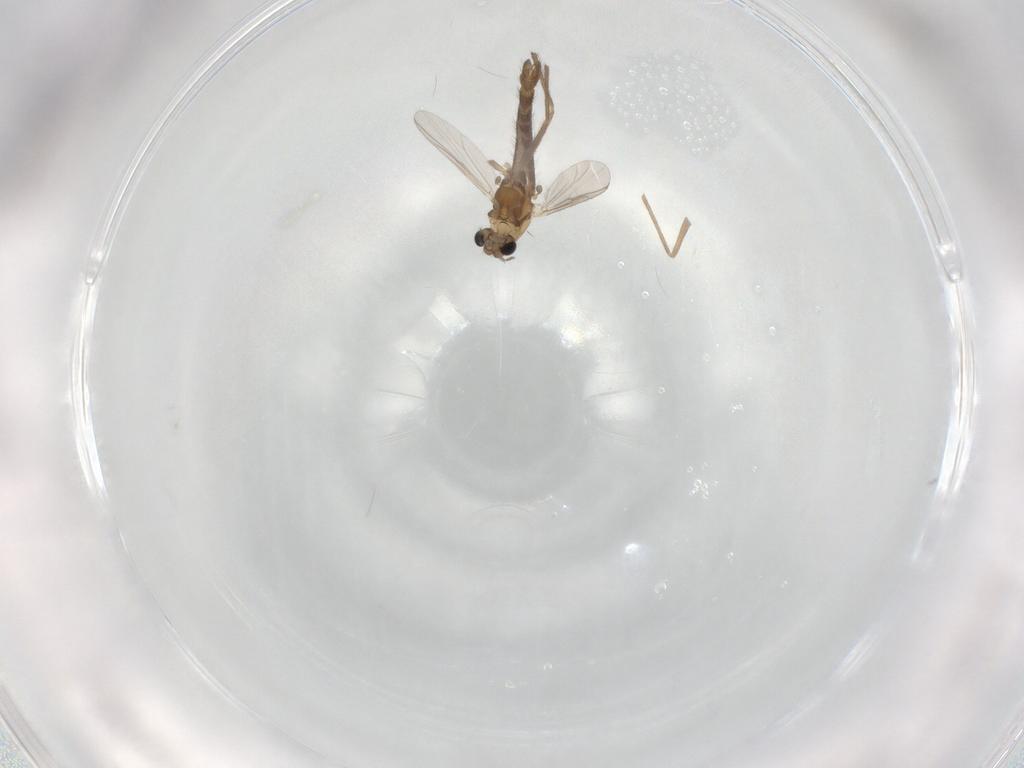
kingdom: Animalia
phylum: Arthropoda
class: Insecta
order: Diptera
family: Chironomidae
